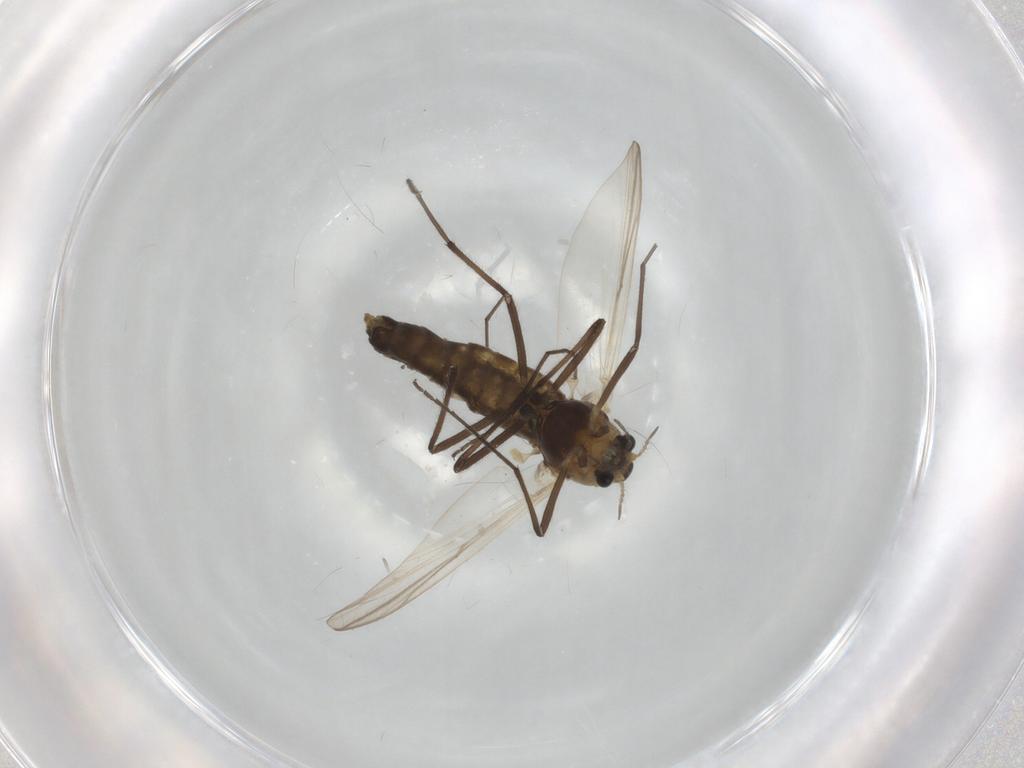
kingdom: Animalia
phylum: Arthropoda
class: Insecta
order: Diptera
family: Chironomidae
